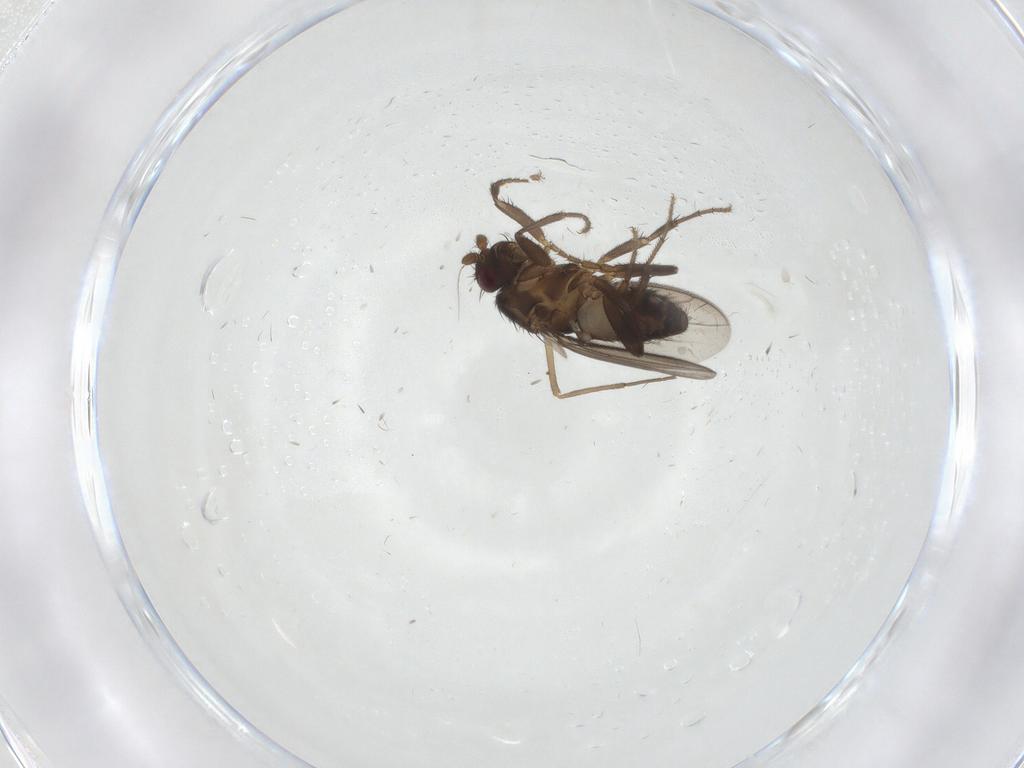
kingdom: Animalia
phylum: Arthropoda
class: Insecta
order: Diptera
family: Sphaeroceridae
